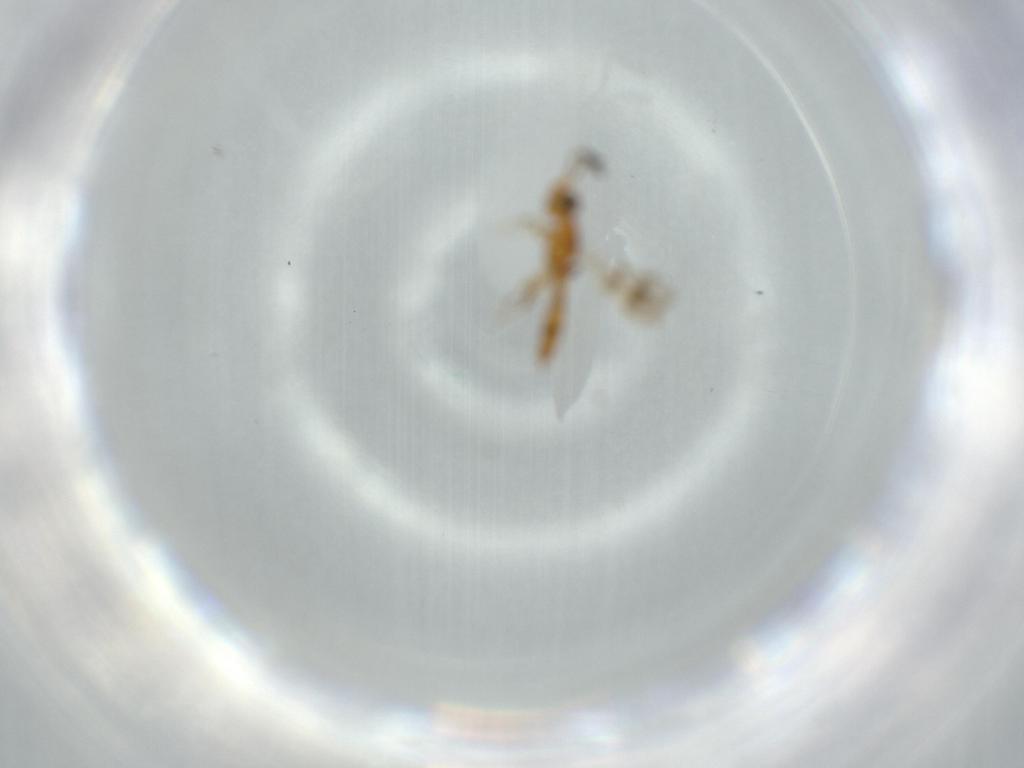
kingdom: Animalia
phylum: Arthropoda
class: Insecta
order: Hymenoptera
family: Scelionidae
